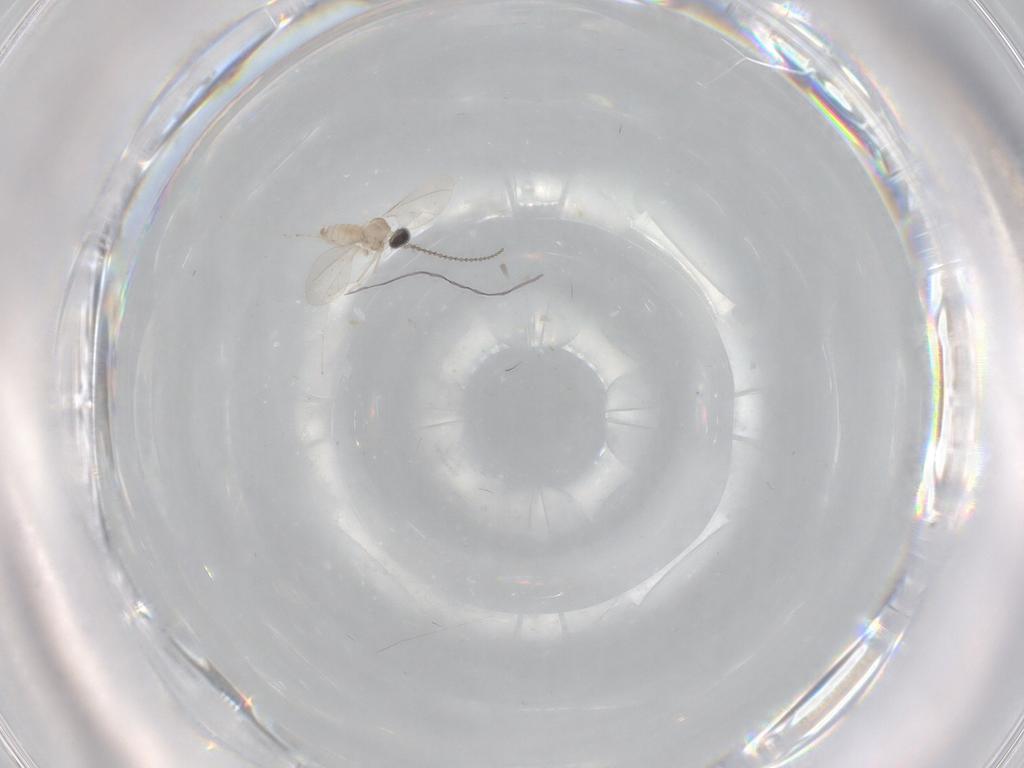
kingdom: Animalia
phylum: Arthropoda
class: Insecta
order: Diptera
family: Cecidomyiidae
